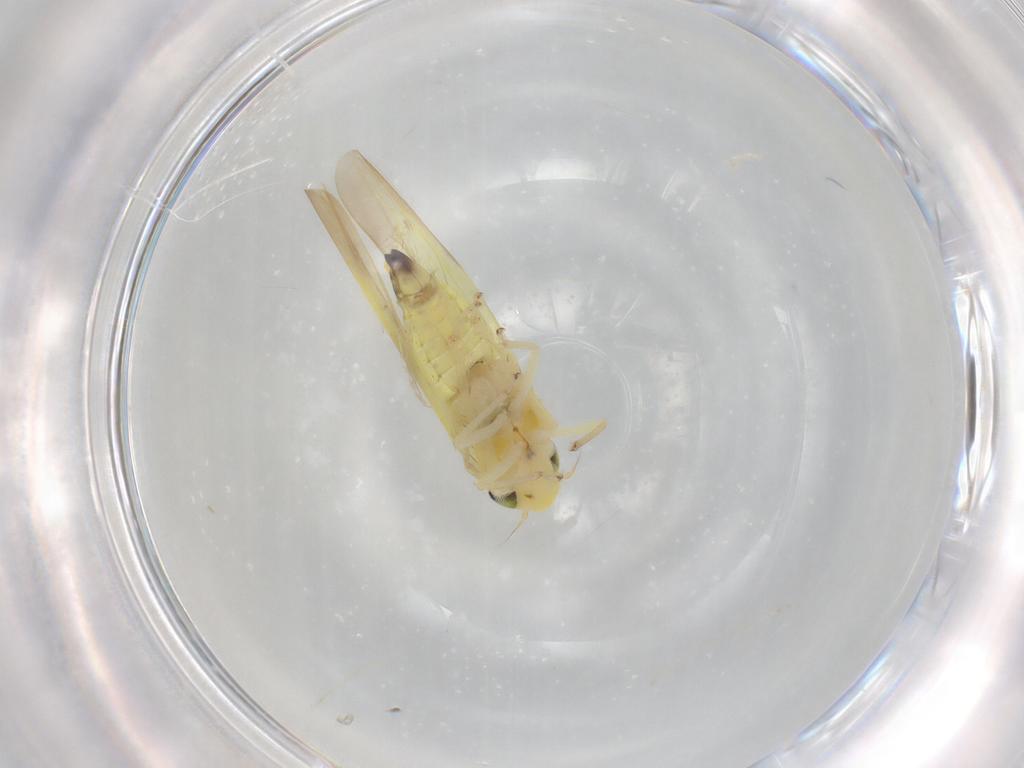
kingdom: Animalia
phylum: Arthropoda
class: Insecta
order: Hemiptera
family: Cicadellidae
